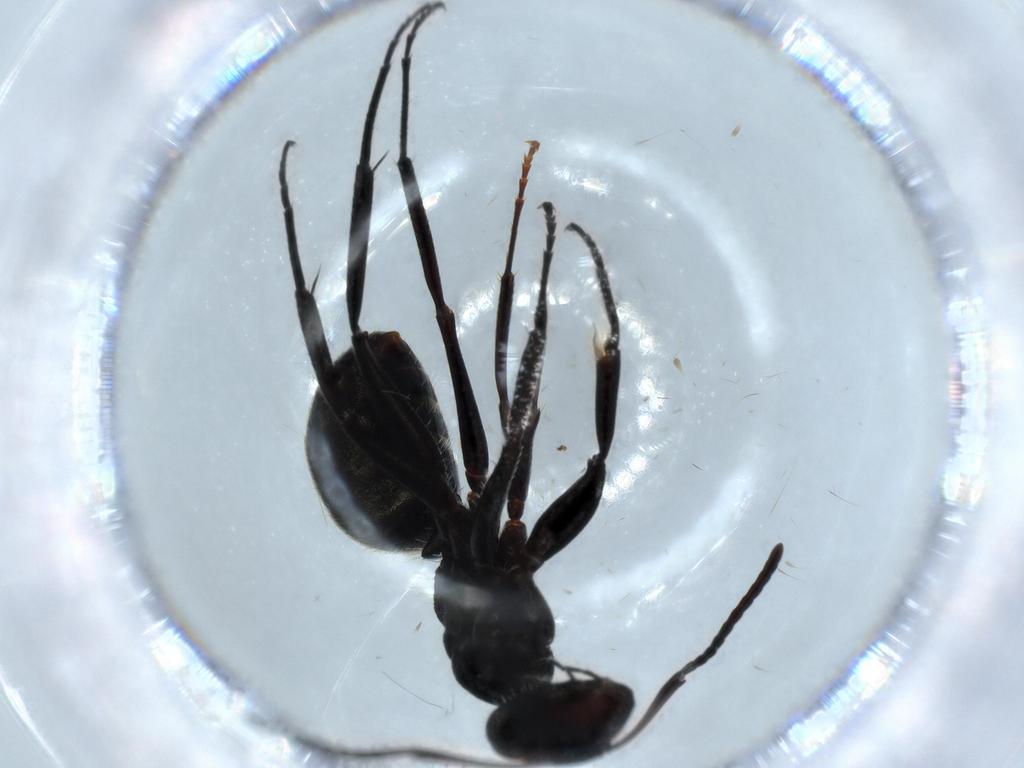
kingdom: Animalia
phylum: Arthropoda
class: Insecta
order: Hymenoptera
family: Formicidae
